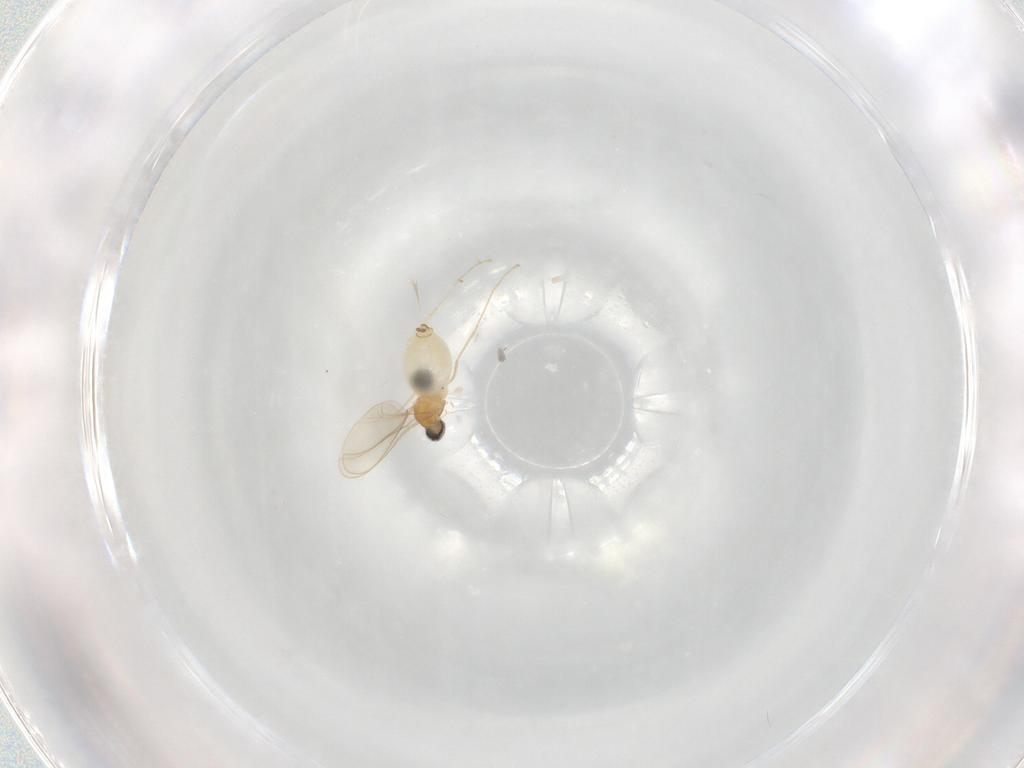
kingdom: Animalia
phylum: Arthropoda
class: Insecta
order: Diptera
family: Cecidomyiidae
